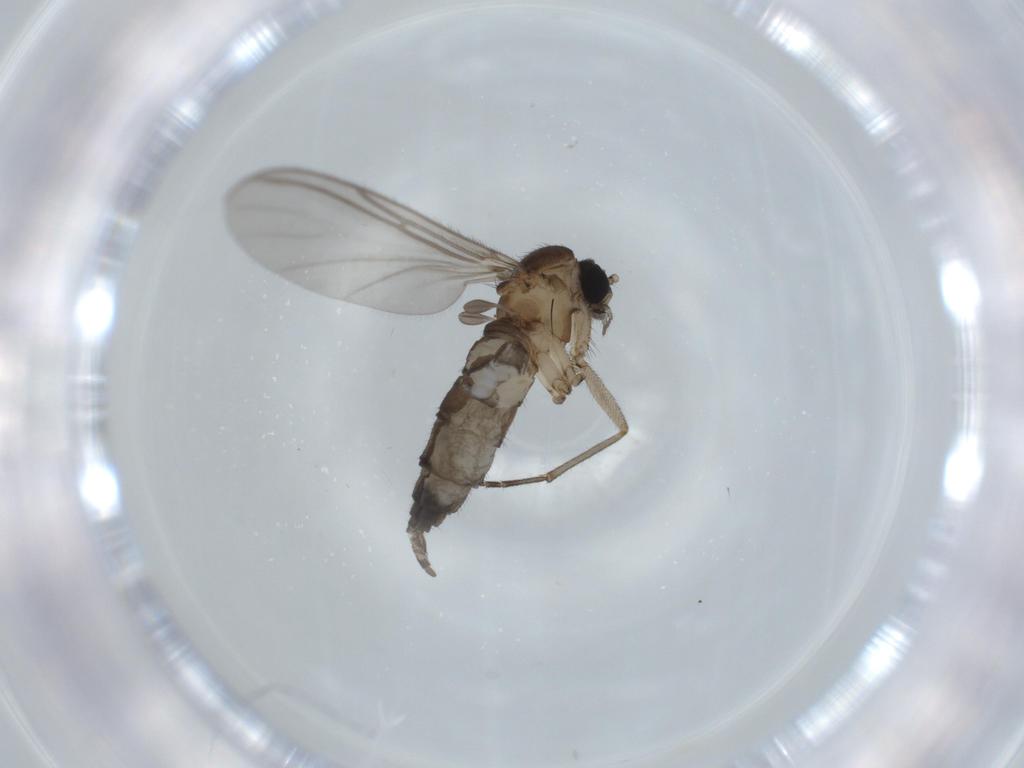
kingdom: Animalia
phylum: Arthropoda
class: Insecta
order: Diptera
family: Sciaridae
